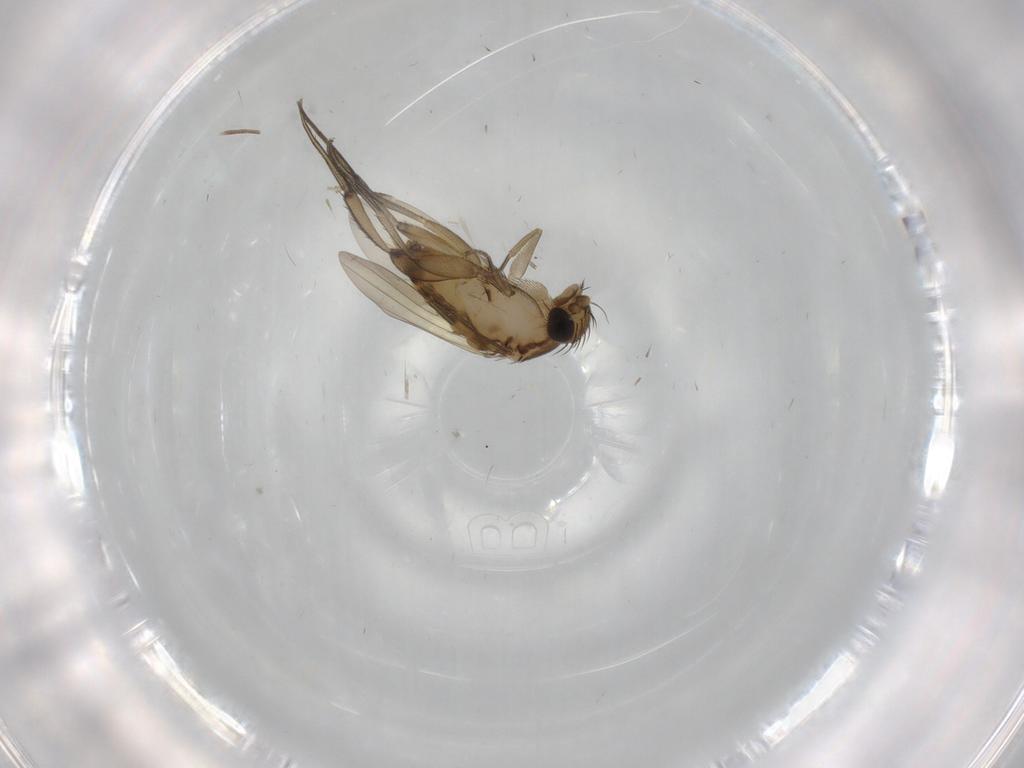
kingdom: Animalia
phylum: Arthropoda
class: Insecta
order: Diptera
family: Phoridae
